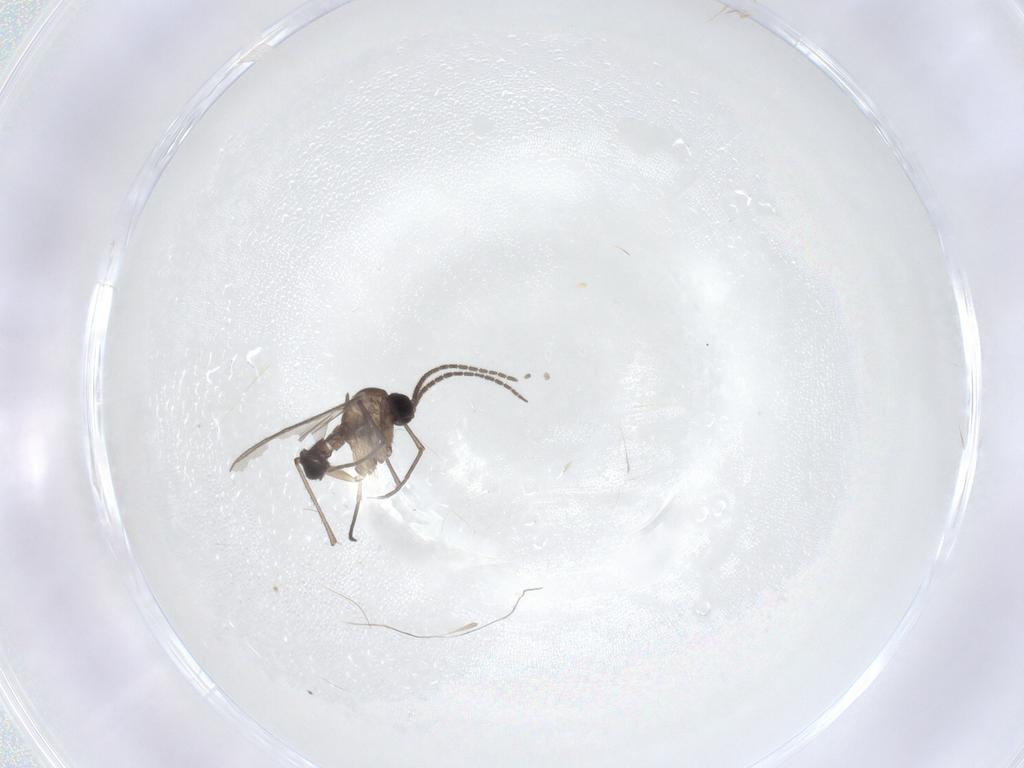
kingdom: Animalia
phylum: Arthropoda
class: Insecta
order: Diptera
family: Sciaridae
